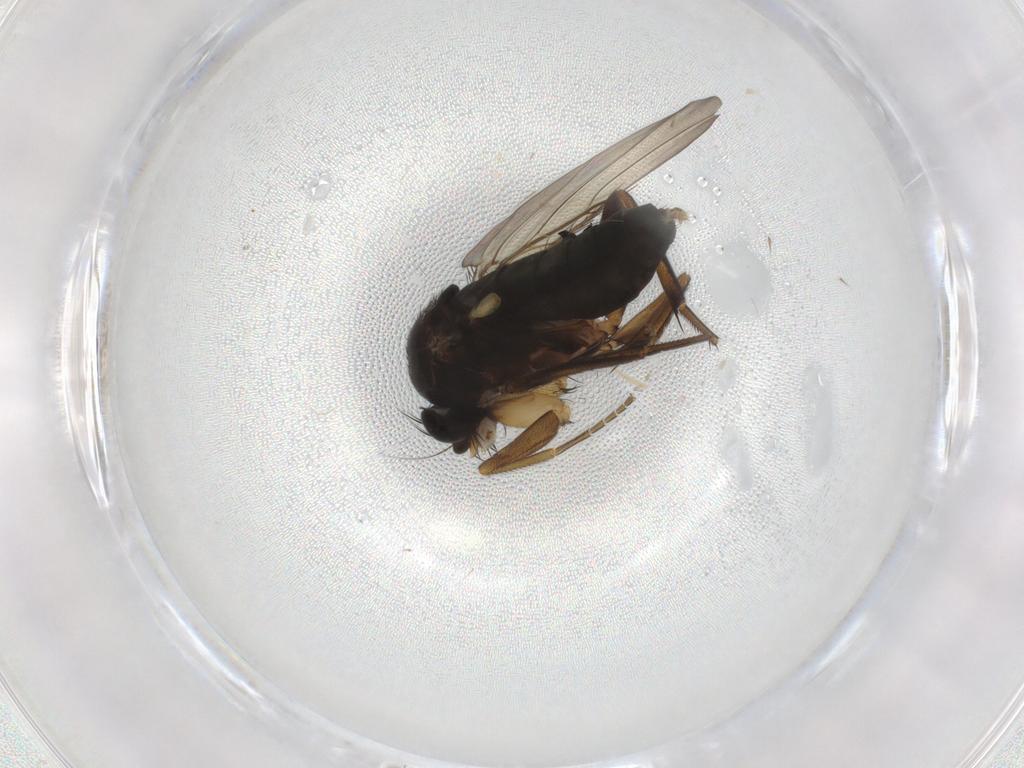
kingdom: Animalia
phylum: Arthropoda
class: Insecta
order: Diptera
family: Phoridae
